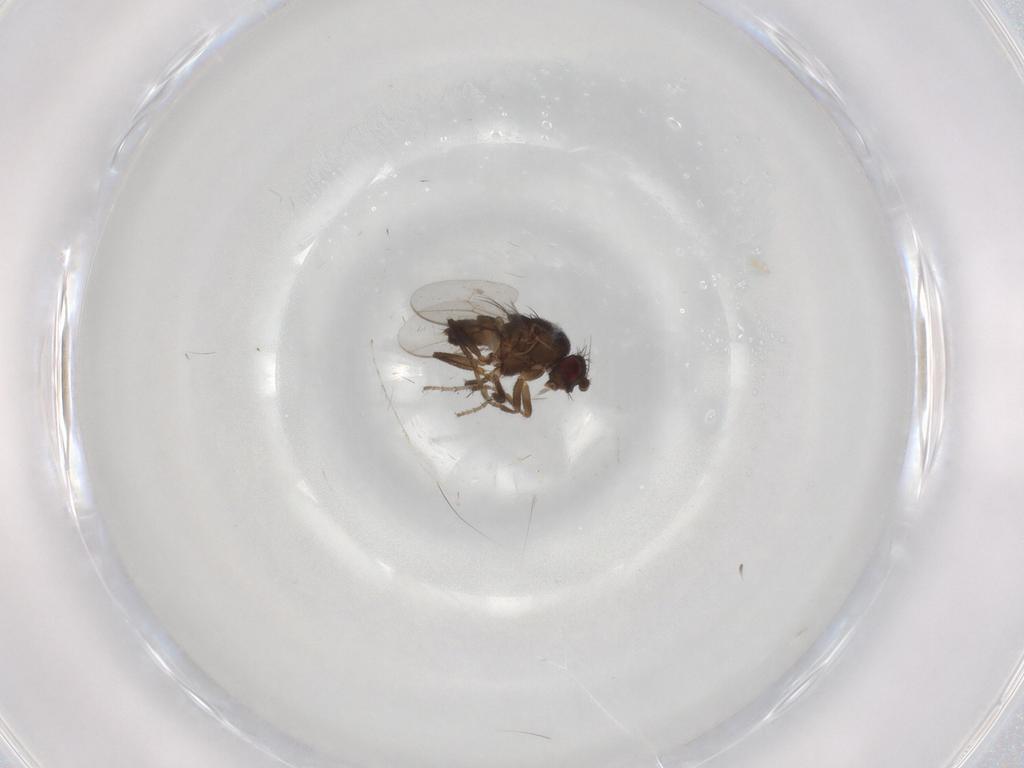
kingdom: Animalia
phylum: Arthropoda
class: Insecta
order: Diptera
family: Sphaeroceridae
